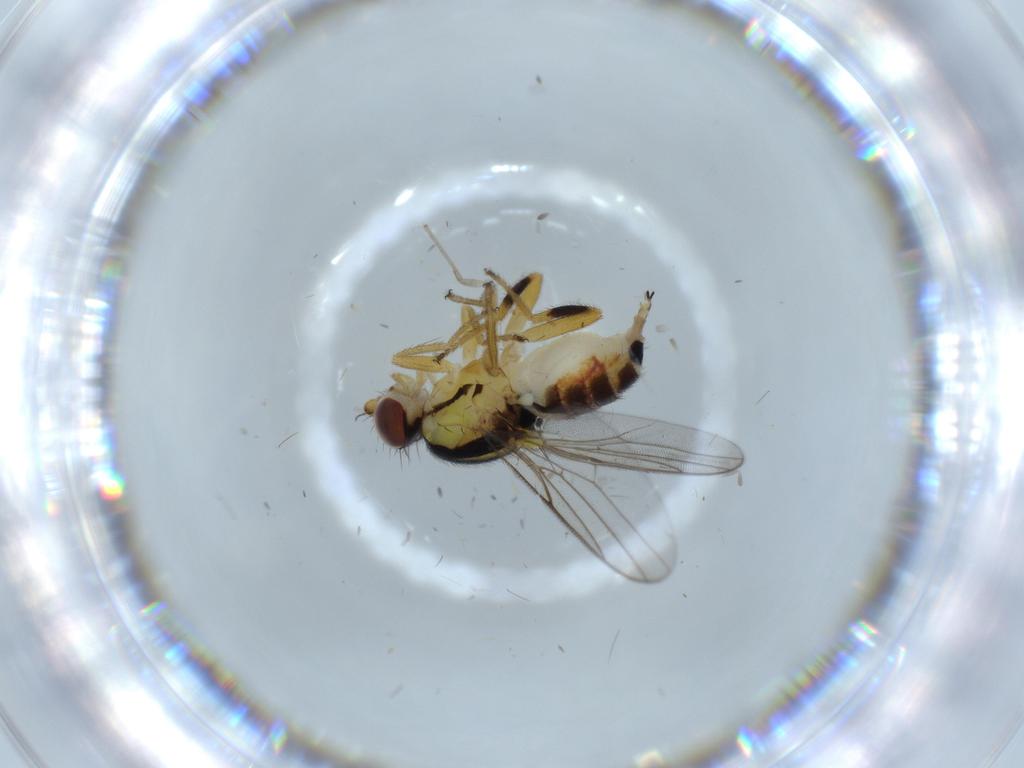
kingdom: Animalia
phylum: Arthropoda
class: Insecta
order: Diptera
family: Chloropidae
